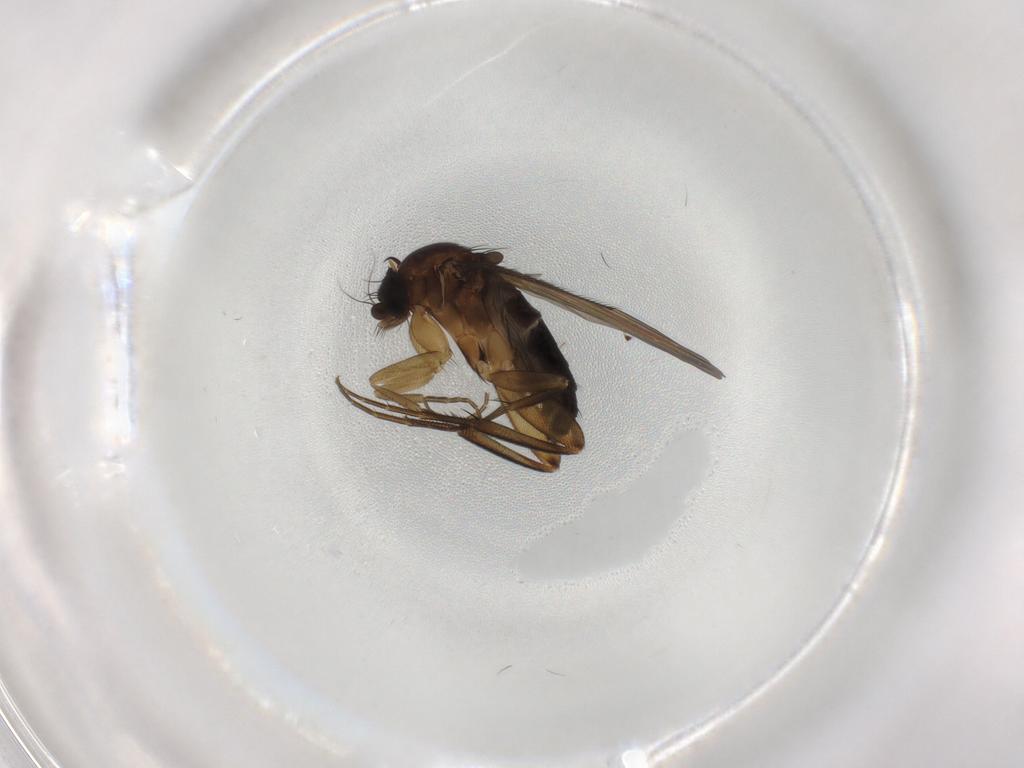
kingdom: Animalia
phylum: Arthropoda
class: Insecta
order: Diptera
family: Phoridae
